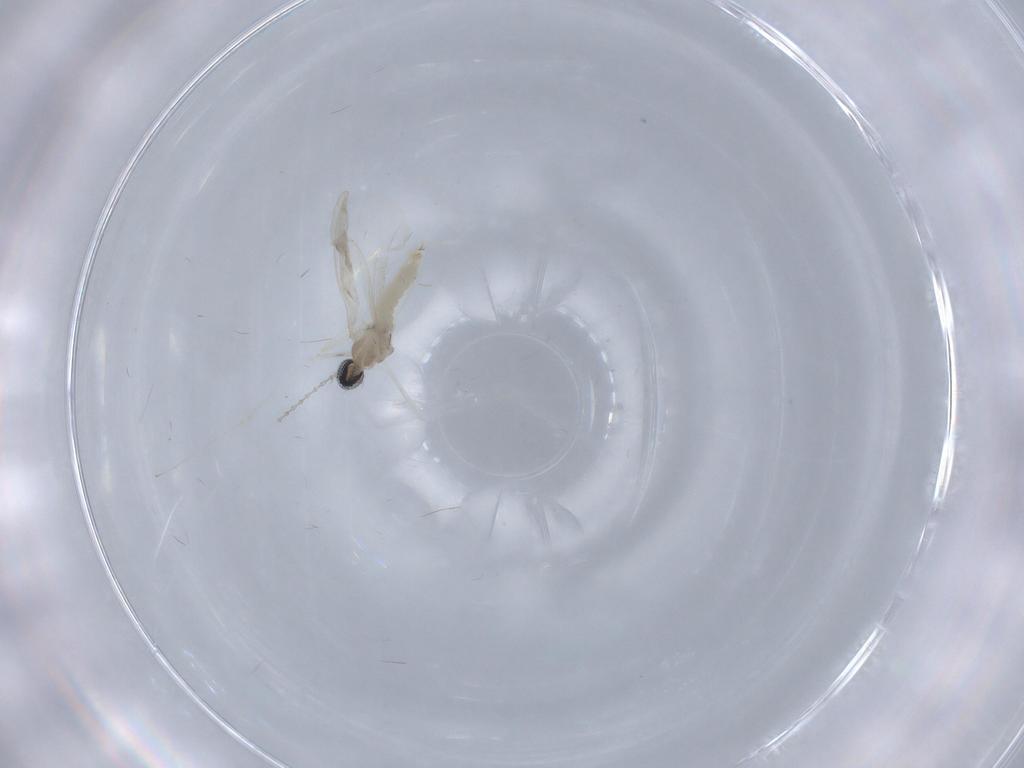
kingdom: Animalia
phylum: Arthropoda
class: Insecta
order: Diptera
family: Cecidomyiidae
